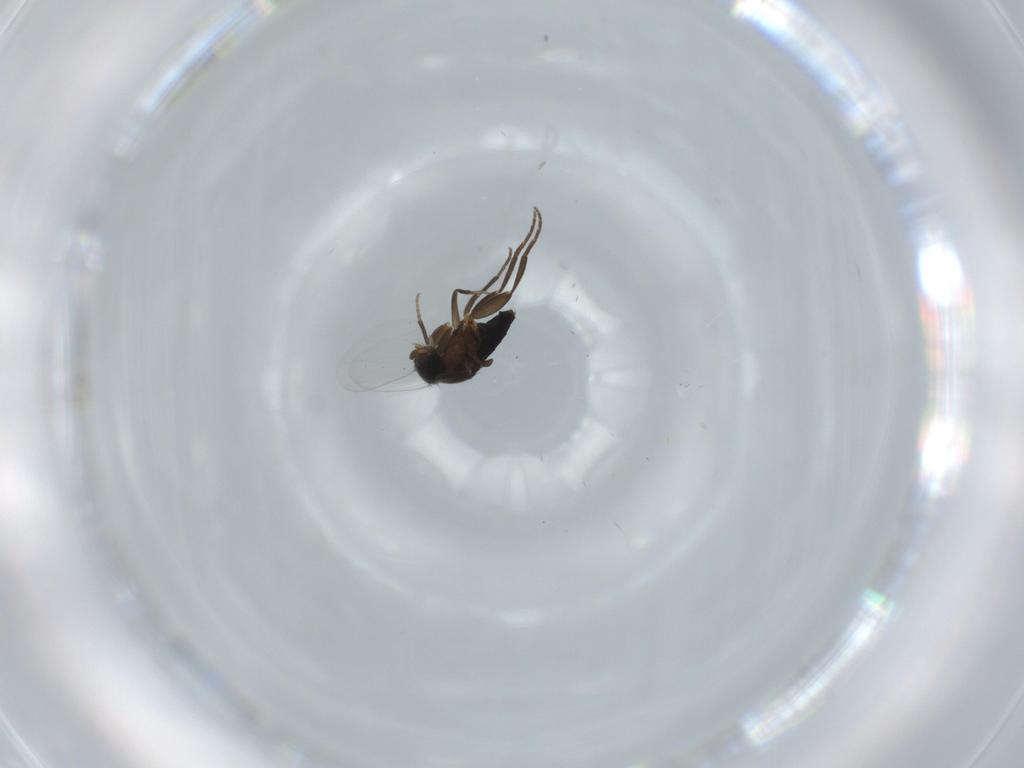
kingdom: Animalia
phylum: Arthropoda
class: Insecta
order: Diptera
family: Phoridae
